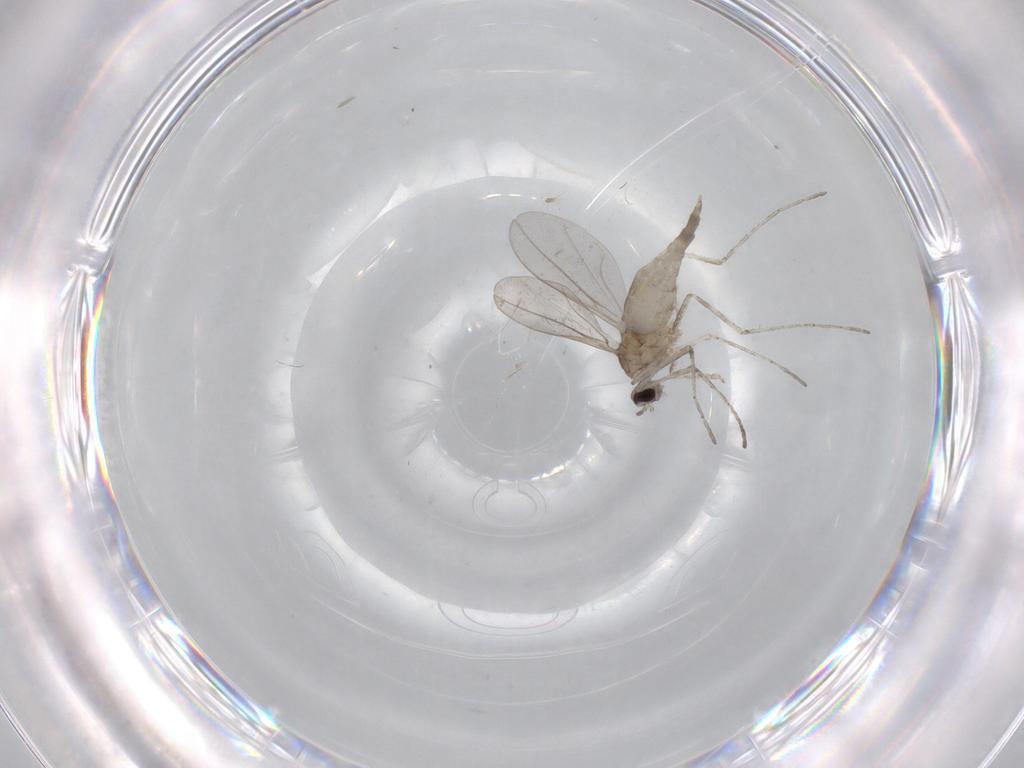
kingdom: Animalia
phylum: Arthropoda
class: Insecta
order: Diptera
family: Cecidomyiidae
